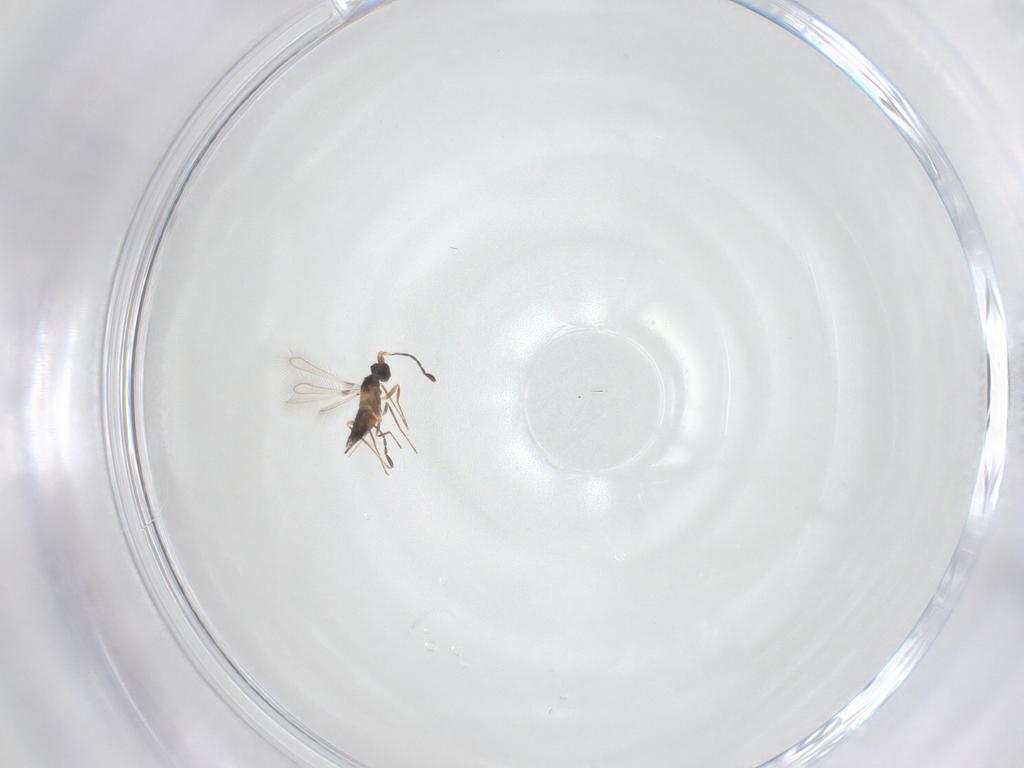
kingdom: Animalia
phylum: Arthropoda
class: Insecta
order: Hymenoptera
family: Mymaridae
